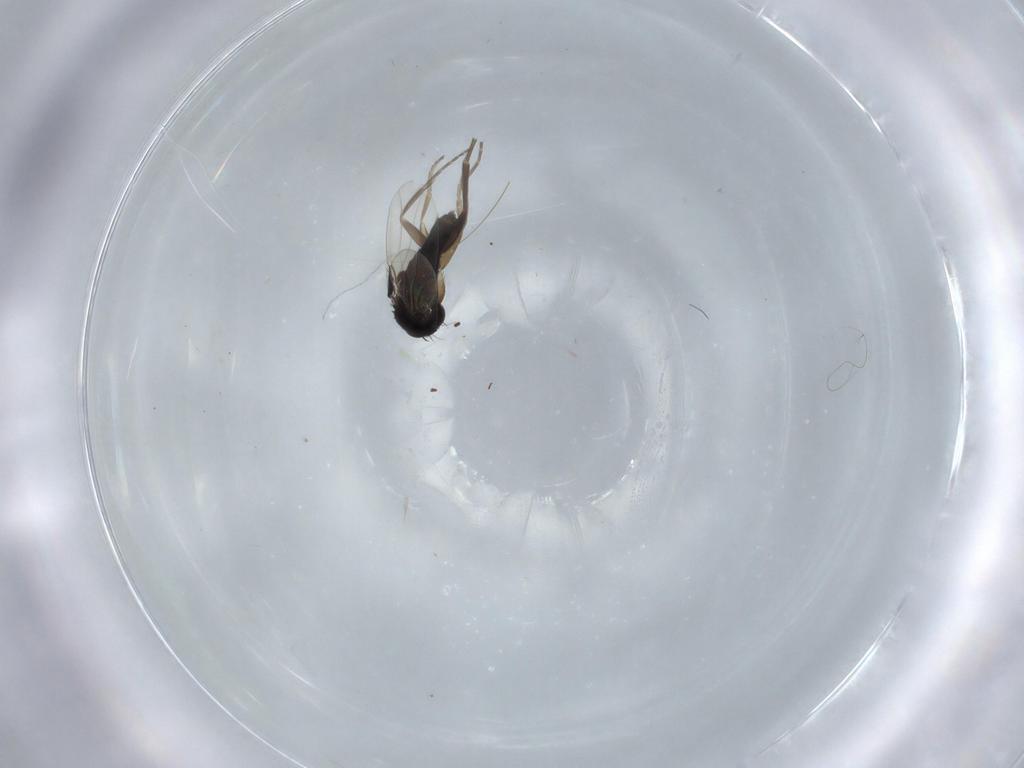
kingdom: Animalia
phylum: Arthropoda
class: Insecta
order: Diptera
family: Phoridae
